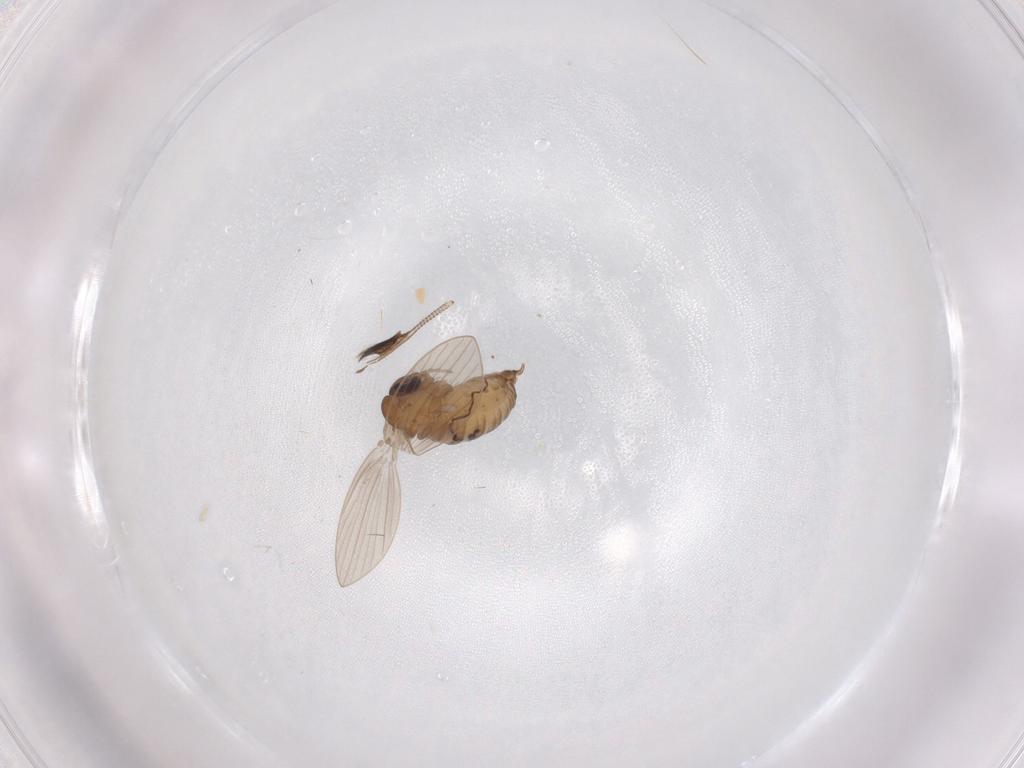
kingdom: Animalia
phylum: Arthropoda
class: Insecta
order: Diptera
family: Psychodidae
